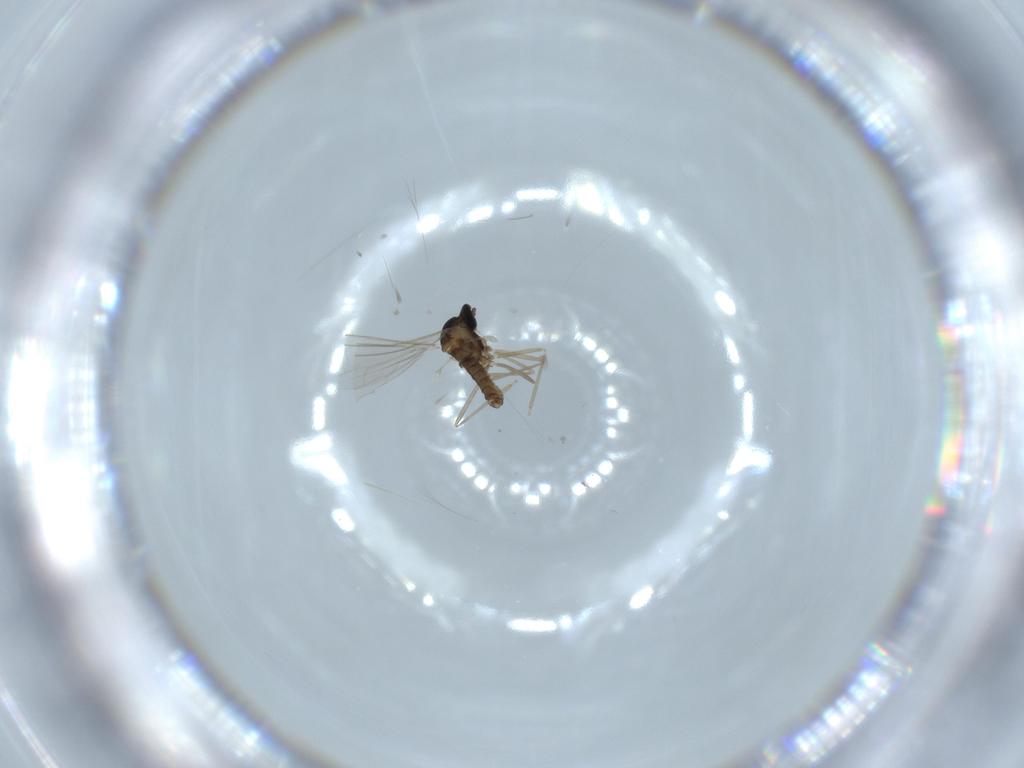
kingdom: Animalia
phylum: Arthropoda
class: Insecta
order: Diptera
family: Cecidomyiidae
